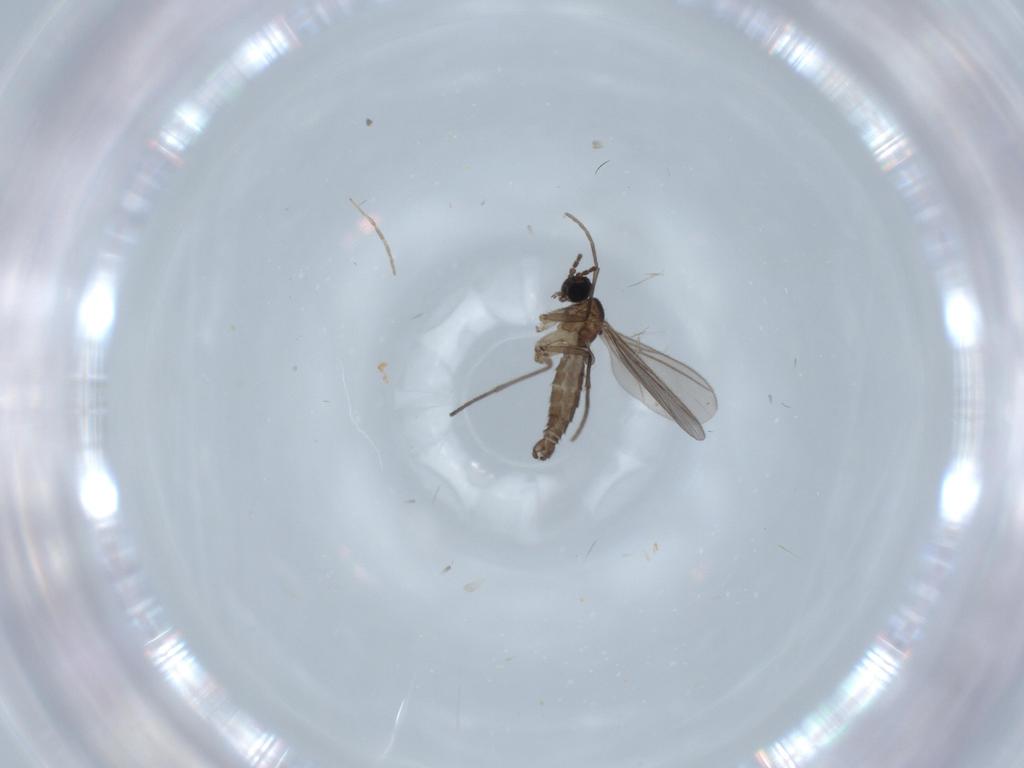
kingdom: Animalia
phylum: Arthropoda
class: Insecta
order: Diptera
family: Sciaridae
